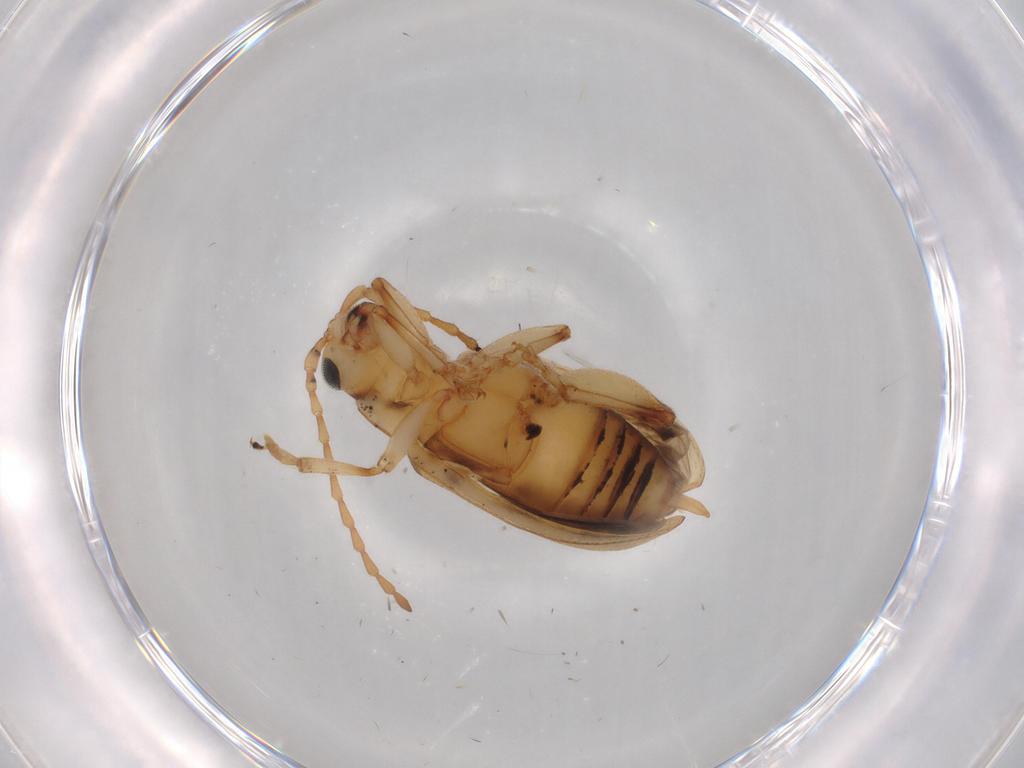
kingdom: Animalia
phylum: Arthropoda
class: Insecta
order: Coleoptera
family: Chrysomelidae
